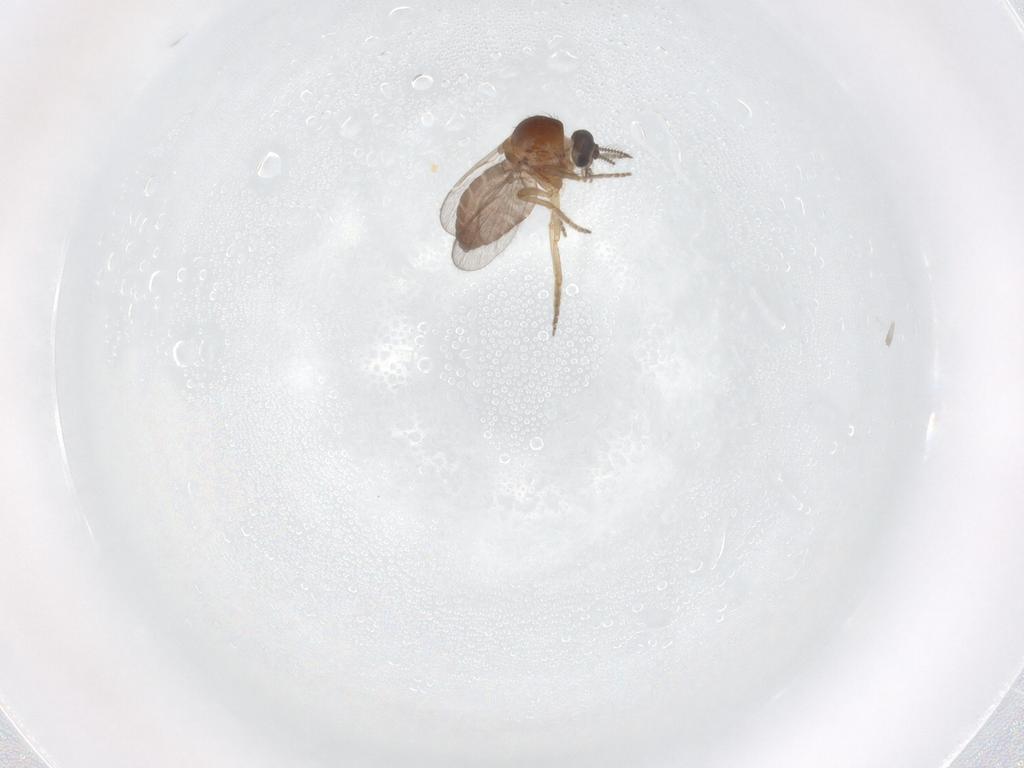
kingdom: Animalia
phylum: Arthropoda
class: Insecta
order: Diptera
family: Ceratopogonidae
